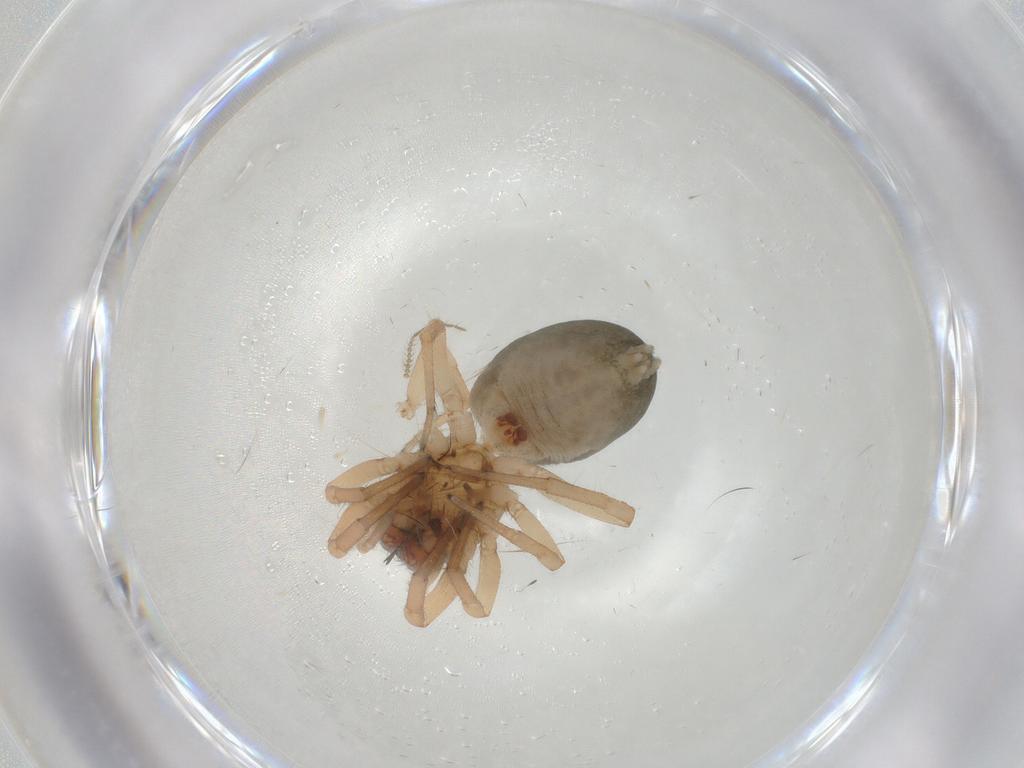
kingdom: Animalia
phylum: Arthropoda
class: Arachnida
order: Araneae
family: Trachelidae
